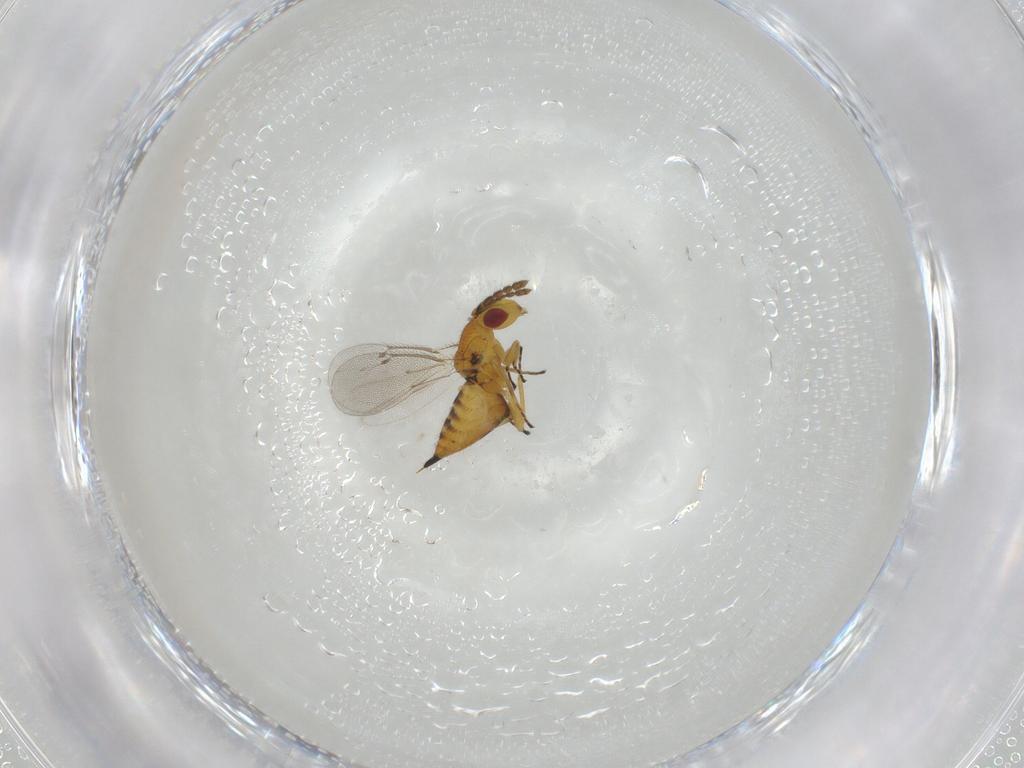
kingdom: Animalia
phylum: Arthropoda
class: Insecta
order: Hymenoptera
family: Eulophidae
